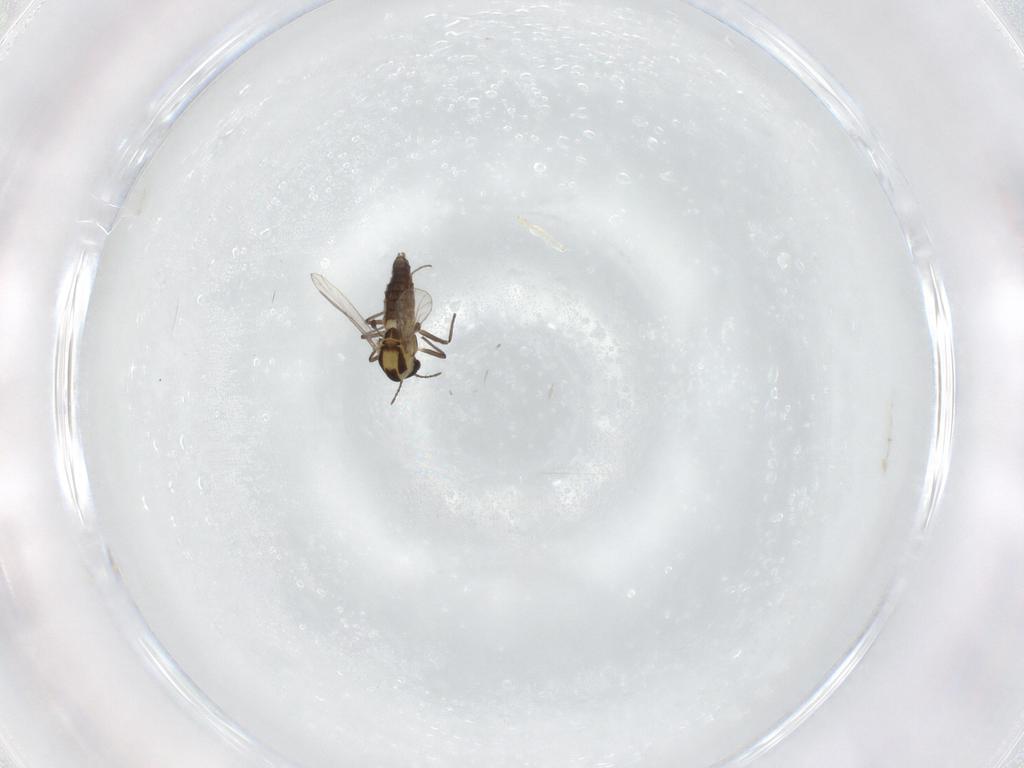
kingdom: Animalia
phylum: Arthropoda
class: Insecta
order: Diptera
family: Chironomidae
